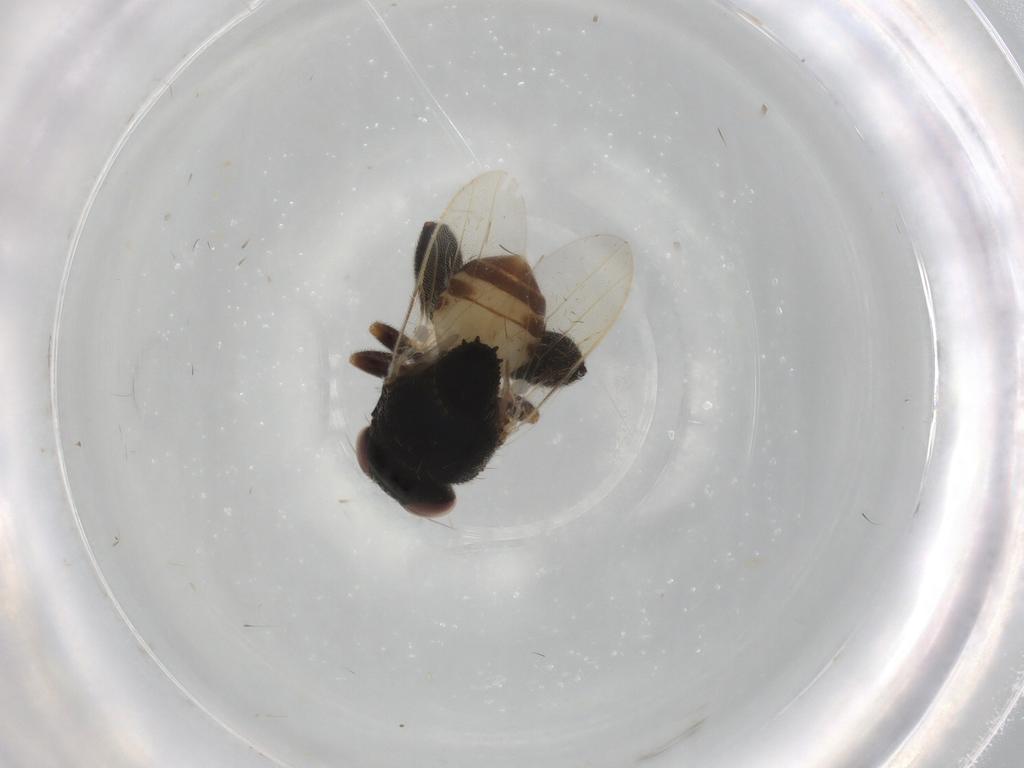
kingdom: Animalia
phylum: Arthropoda
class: Insecta
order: Diptera
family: Chloropidae
